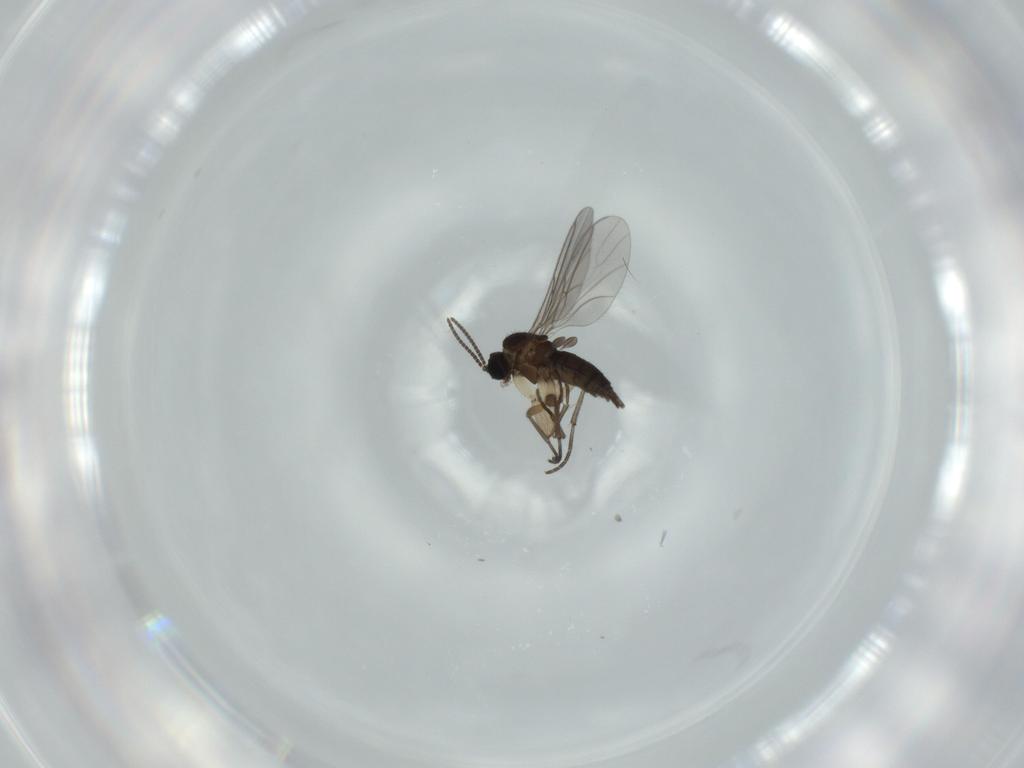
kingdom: Animalia
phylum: Arthropoda
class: Insecta
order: Diptera
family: Sciaridae
